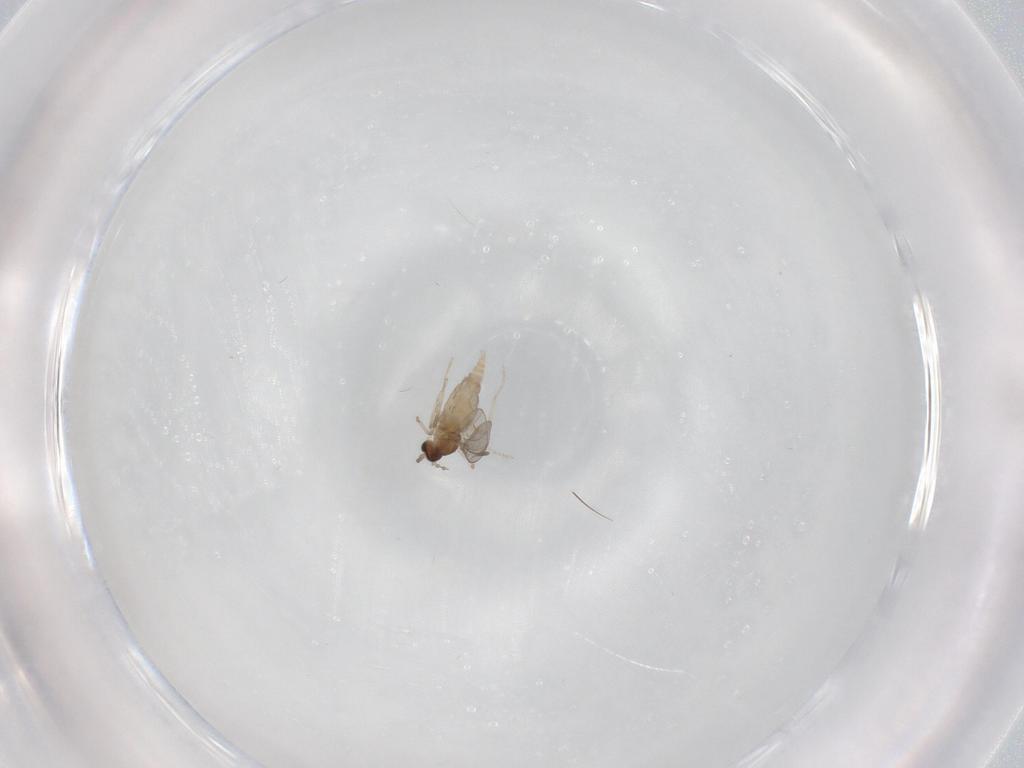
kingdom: Animalia
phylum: Arthropoda
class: Insecta
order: Diptera
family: Cecidomyiidae
